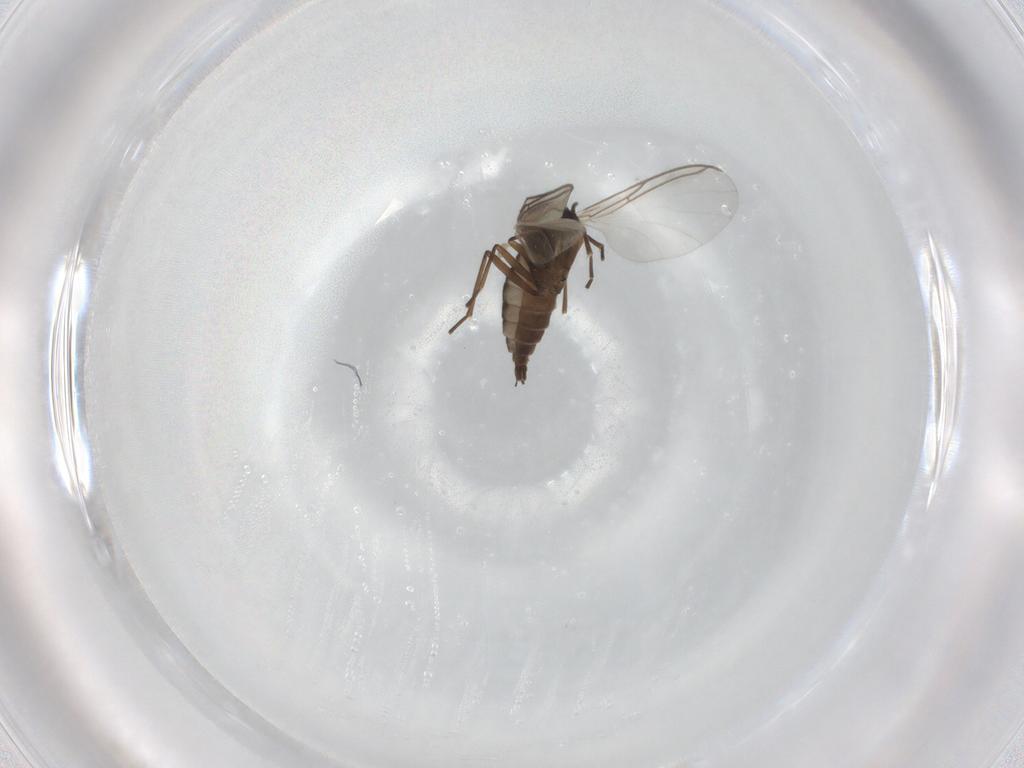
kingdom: Animalia
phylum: Arthropoda
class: Insecta
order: Diptera
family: Sciaridae
